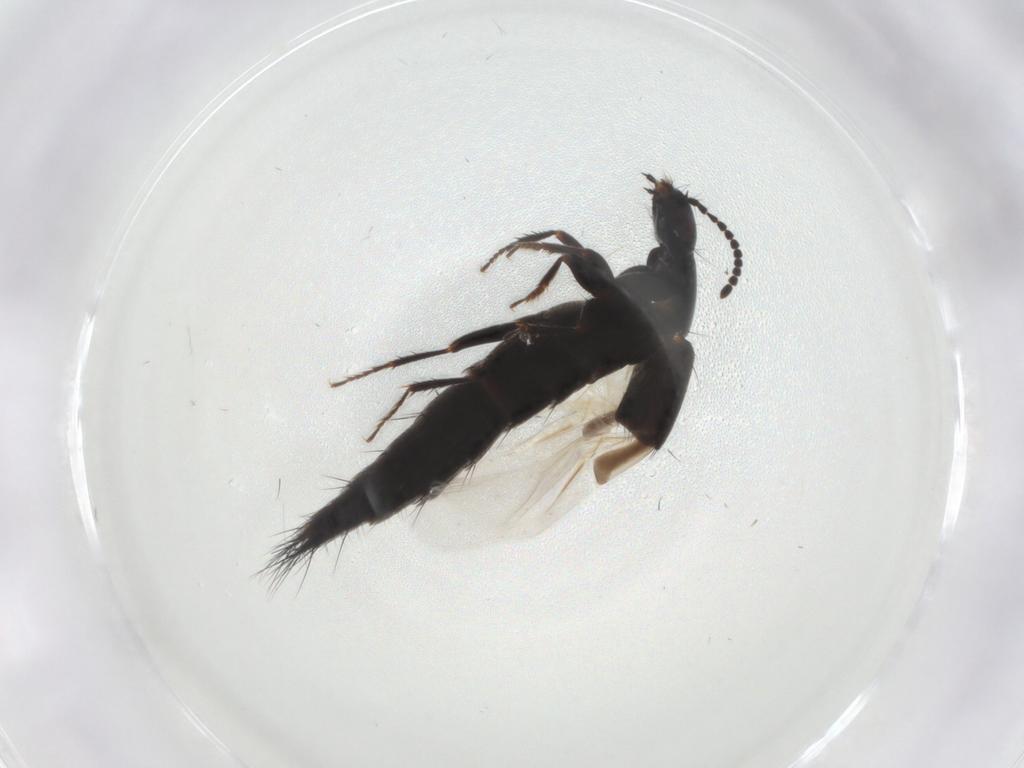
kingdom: Animalia
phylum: Arthropoda
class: Insecta
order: Coleoptera
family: Staphylinidae
